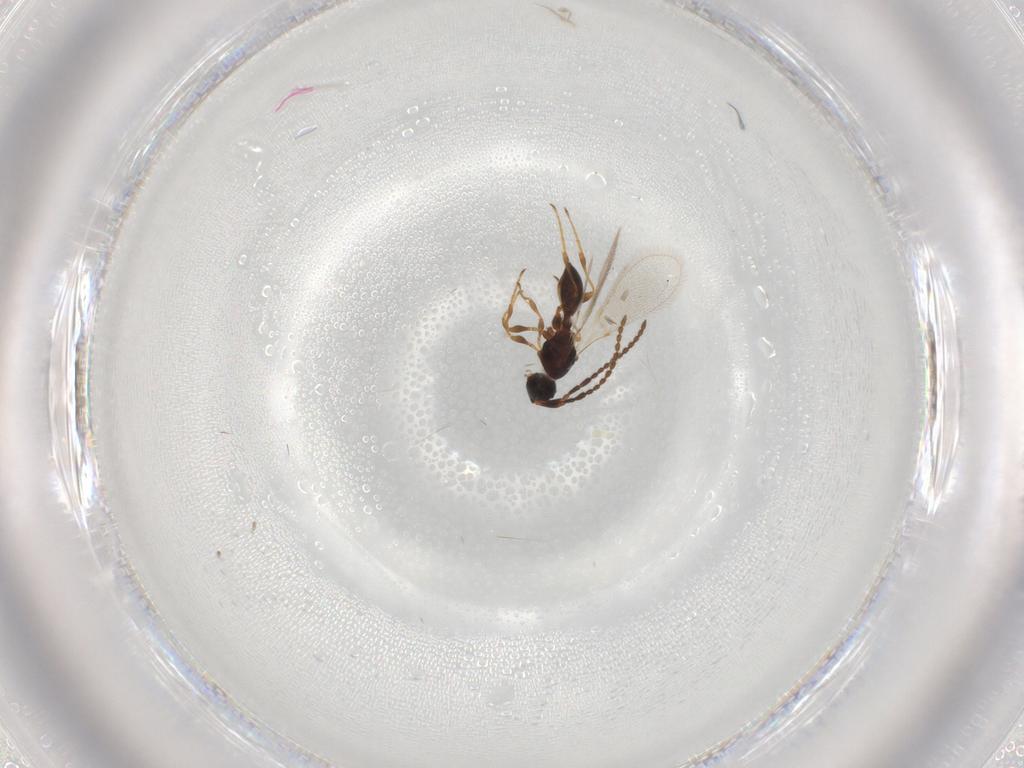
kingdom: Animalia
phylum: Arthropoda
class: Insecta
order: Hymenoptera
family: Diapriidae
